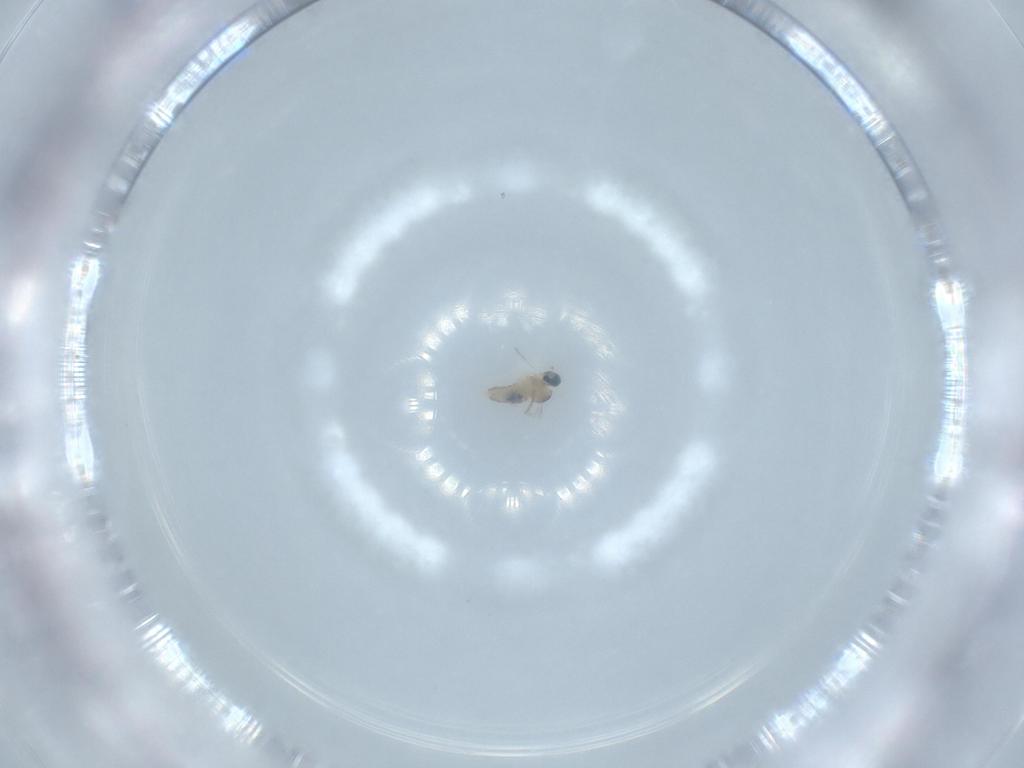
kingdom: Animalia
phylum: Arthropoda
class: Insecta
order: Diptera
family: Cecidomyiidae
